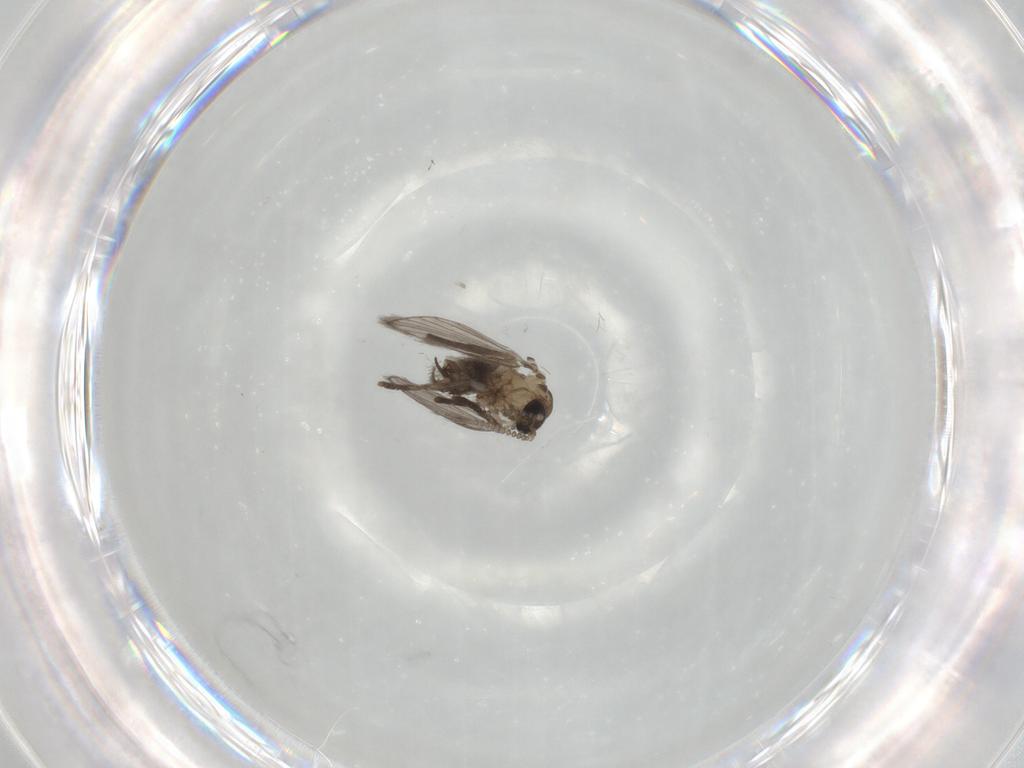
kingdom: Animalia
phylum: Arthropoda
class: Insecta
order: Diptera
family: Psychodidae
